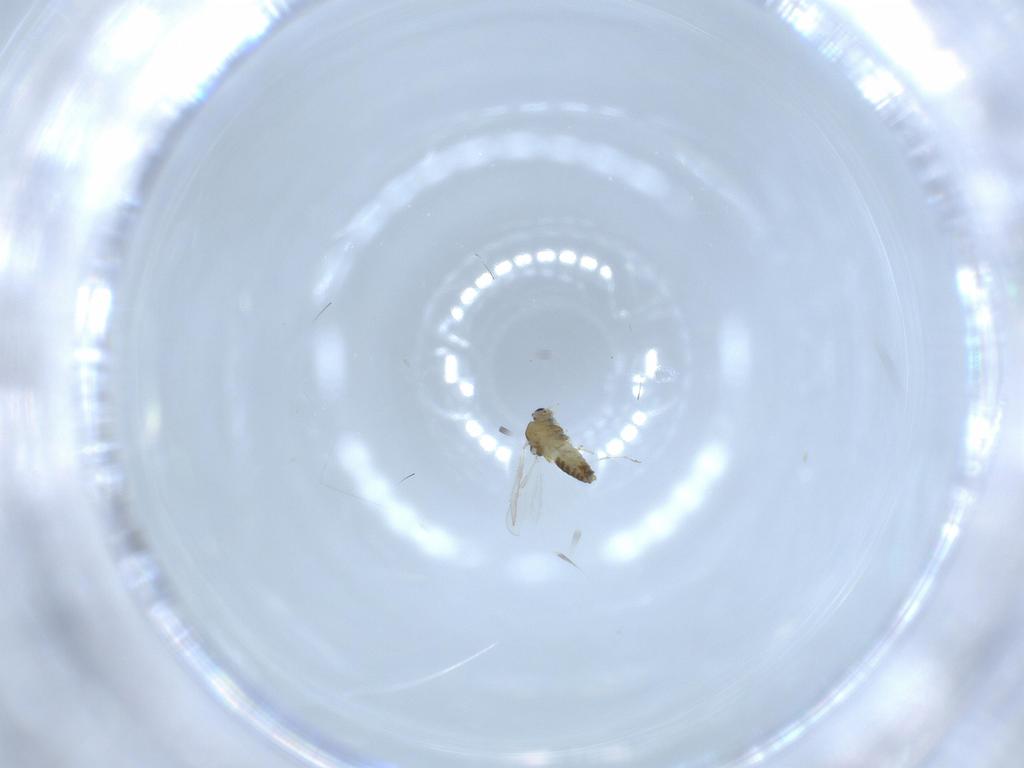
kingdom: Animalia
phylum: Arthropoda
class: Insecta
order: Diptera
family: Chironomidae
